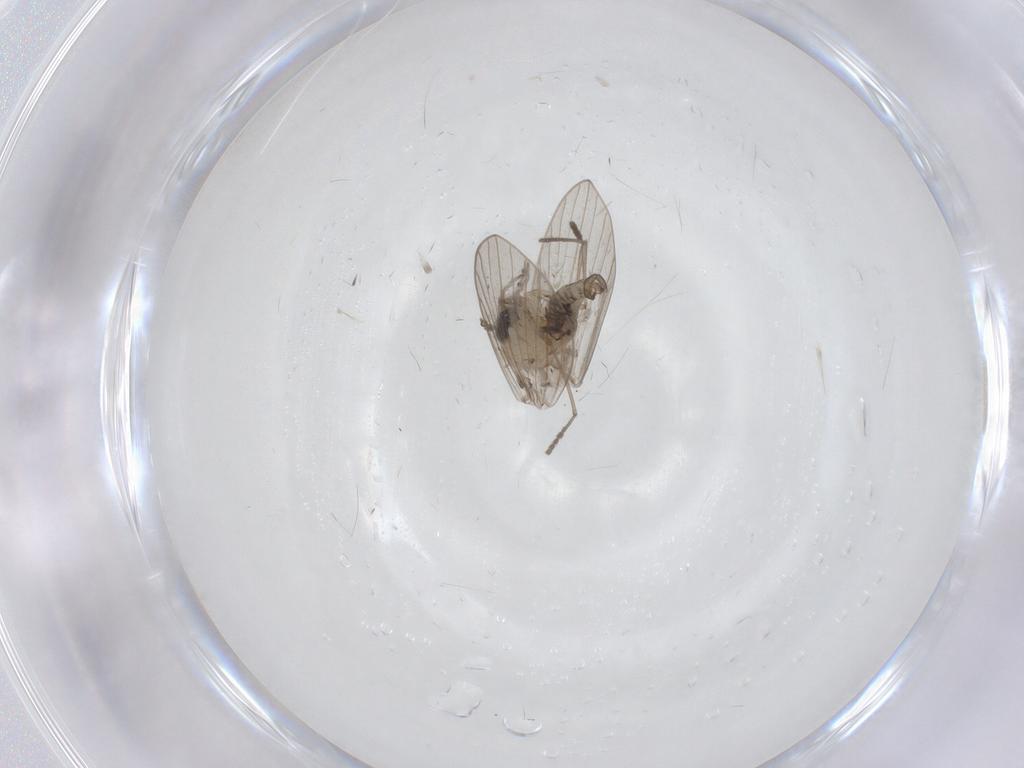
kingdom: Animalia
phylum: Arthropoda
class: Insecta
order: Diptera
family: Psychodidae
